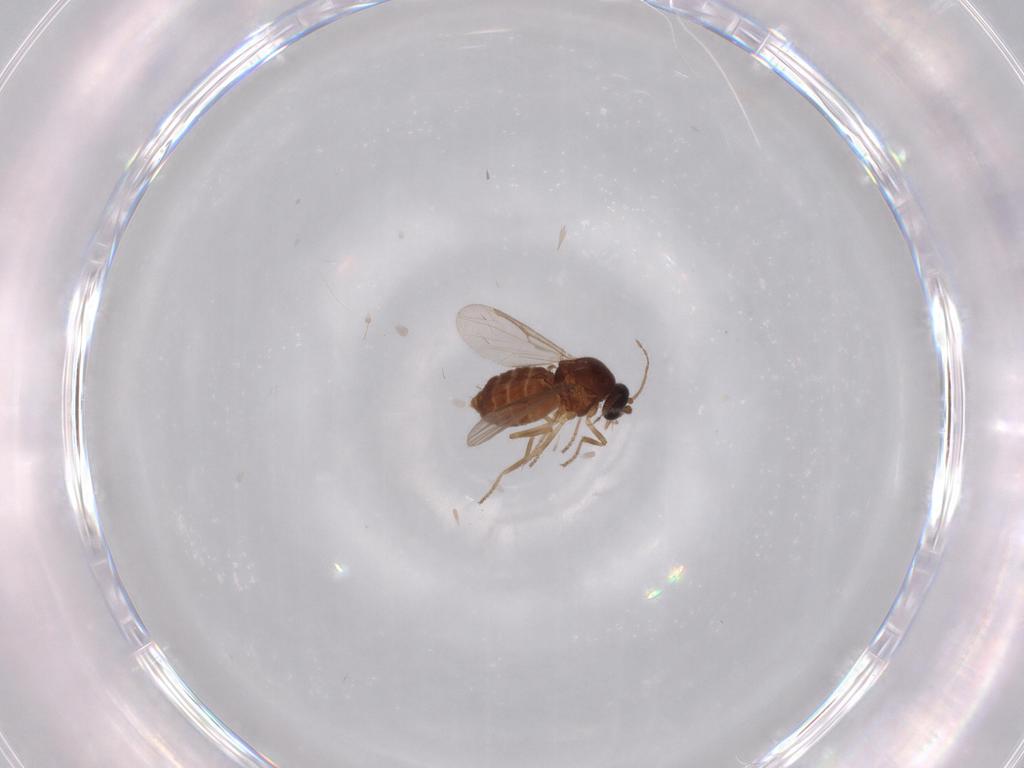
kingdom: Animalia
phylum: Arthropoda
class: Insecta
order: Diptera
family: Ceratopogonidae
